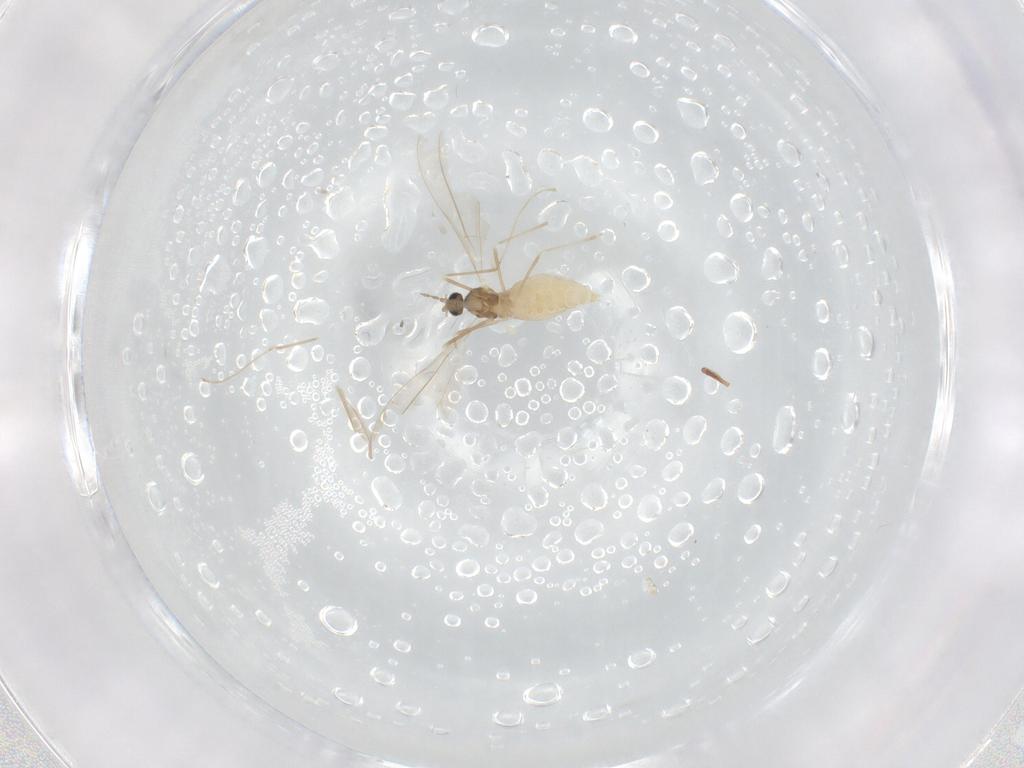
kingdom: Animalia
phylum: Arthropoda
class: Insecta
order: Diptera
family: Cecidomyiidae
